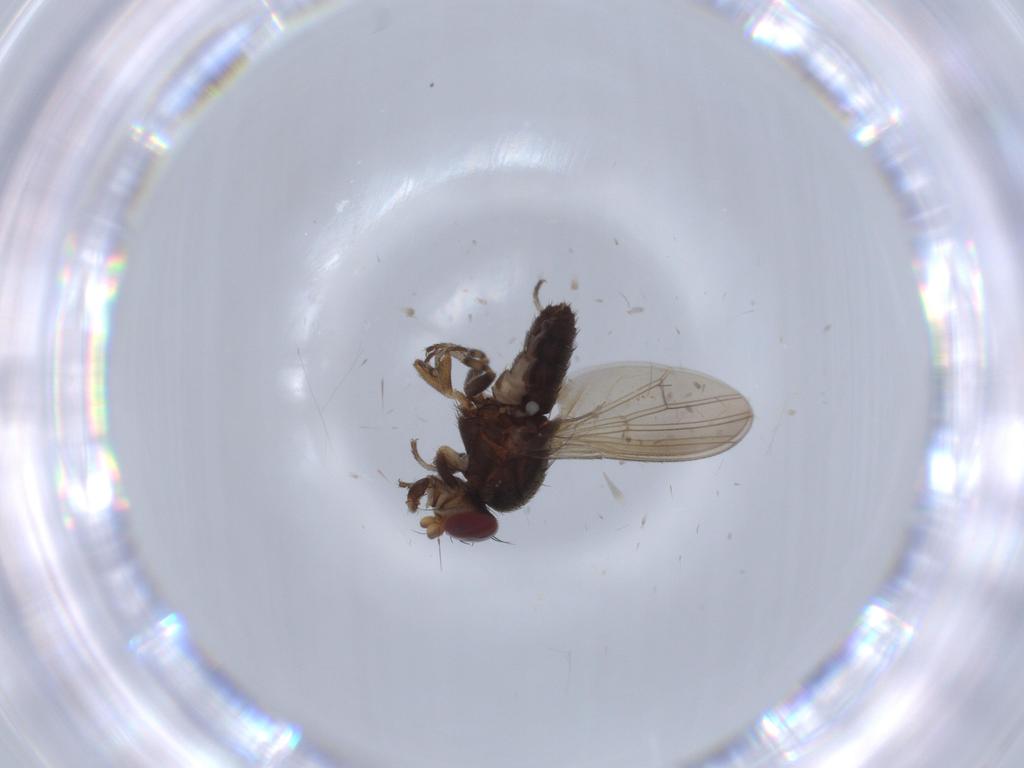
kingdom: Animalia
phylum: Arthropoda
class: Insecta
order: Diptera
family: Heleomyzidae
